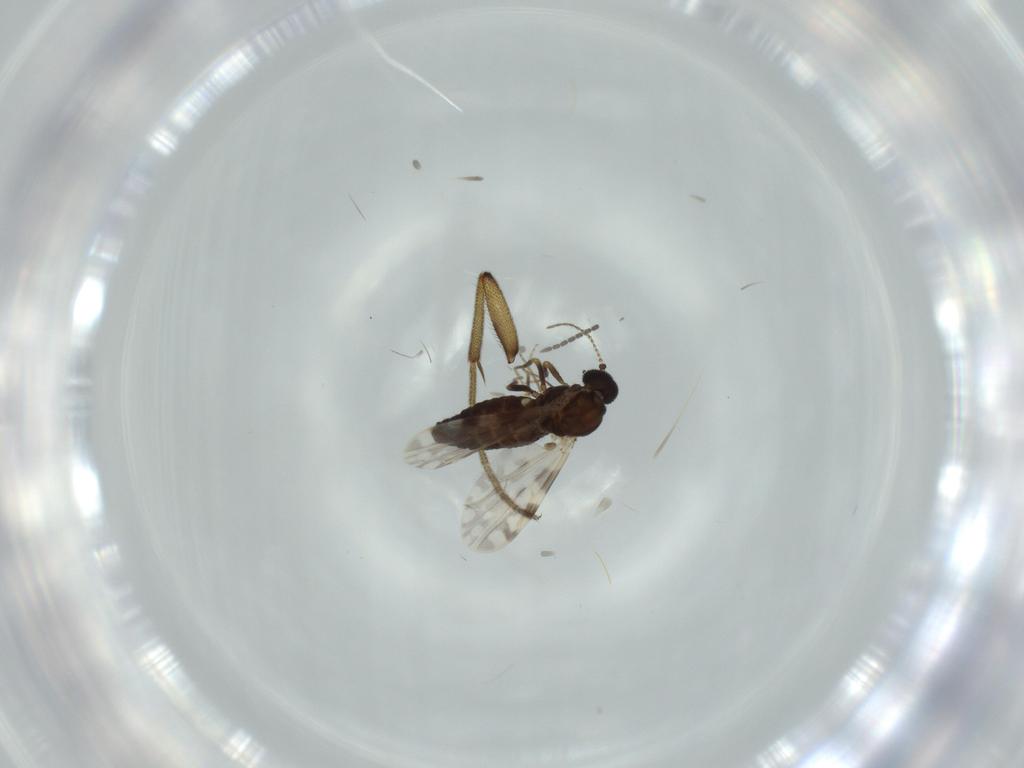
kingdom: Animalia
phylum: Arthropoda
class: Insecta
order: Diptera
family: Ceratopogonidae
